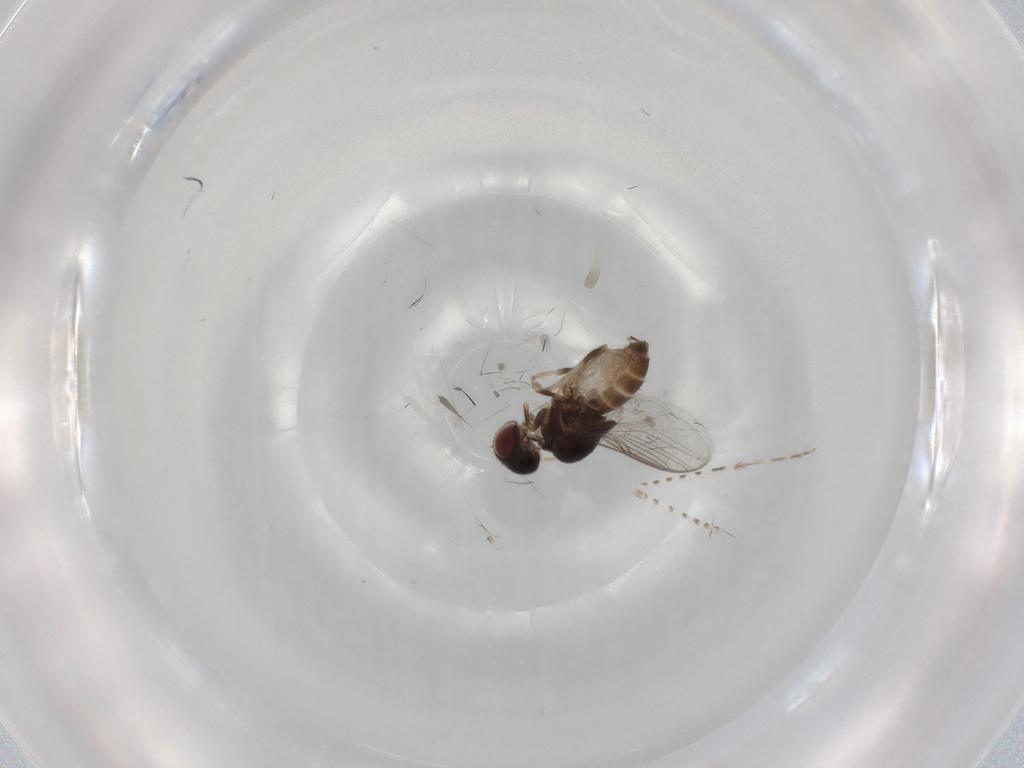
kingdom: Animalia
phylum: Arthropoda
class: Insecta
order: Diptera
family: Chloropidae
